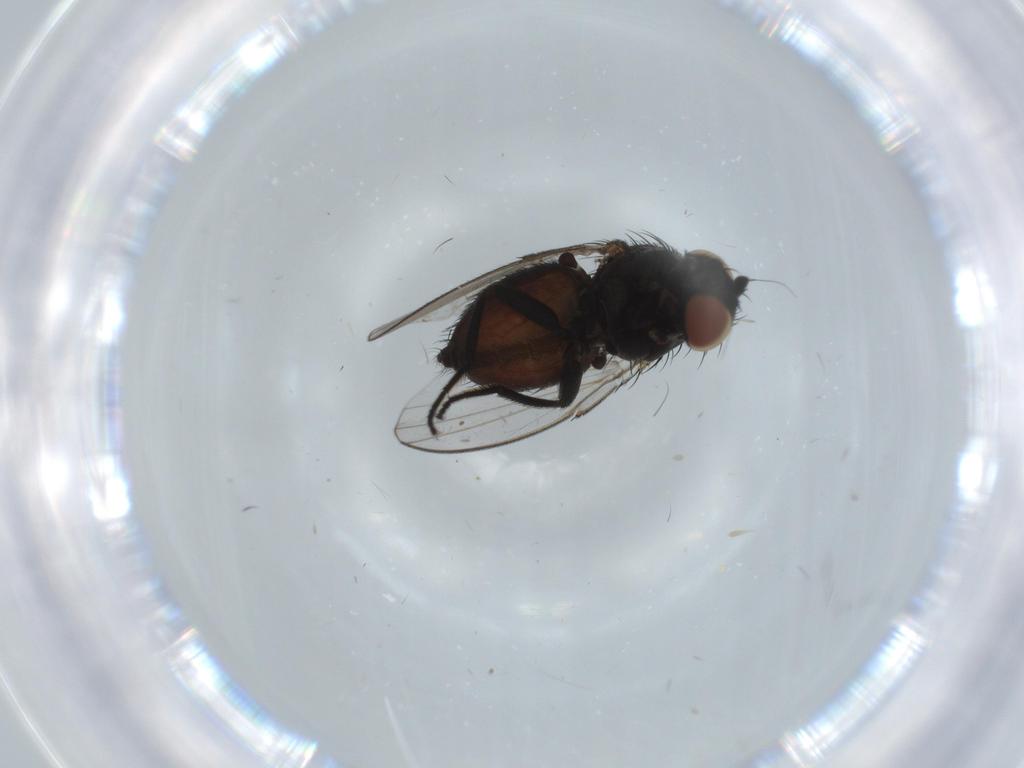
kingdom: Animalia
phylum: Arthropoda
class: Insecta
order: Diptera
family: Milichiidae
